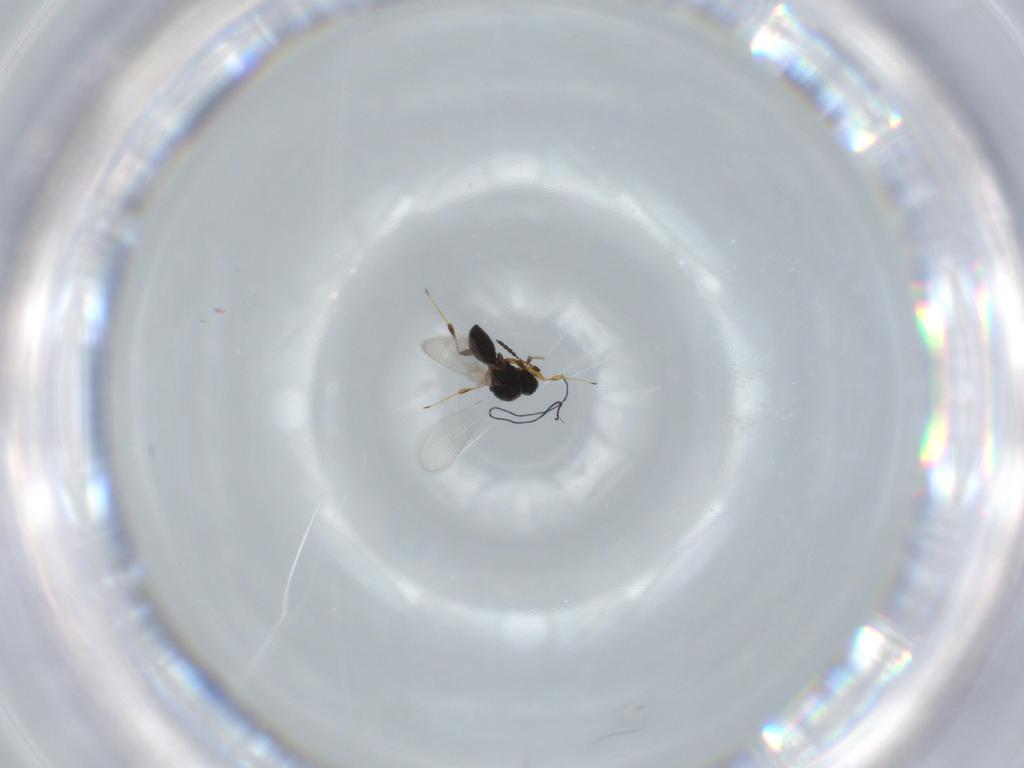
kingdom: Animalia
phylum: Arthropoda
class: Insecta
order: Hymenoptera
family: Platygastridae
